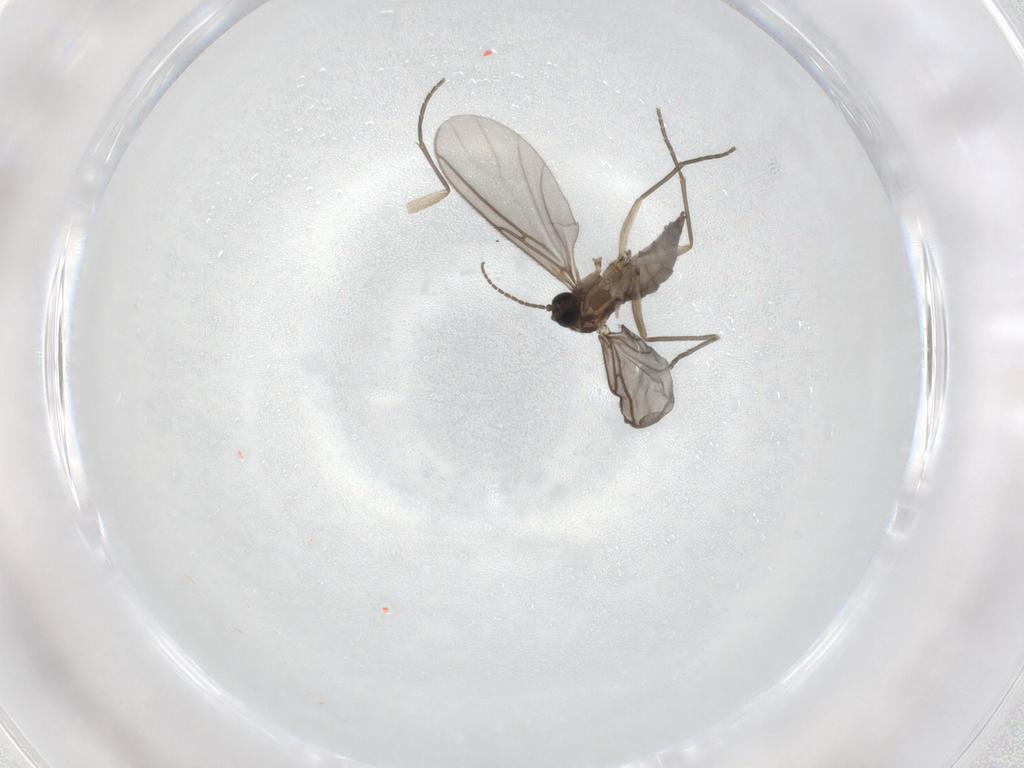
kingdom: Animalia
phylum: Arthropoda
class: Insecta
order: Diptera
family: Sciaridae
